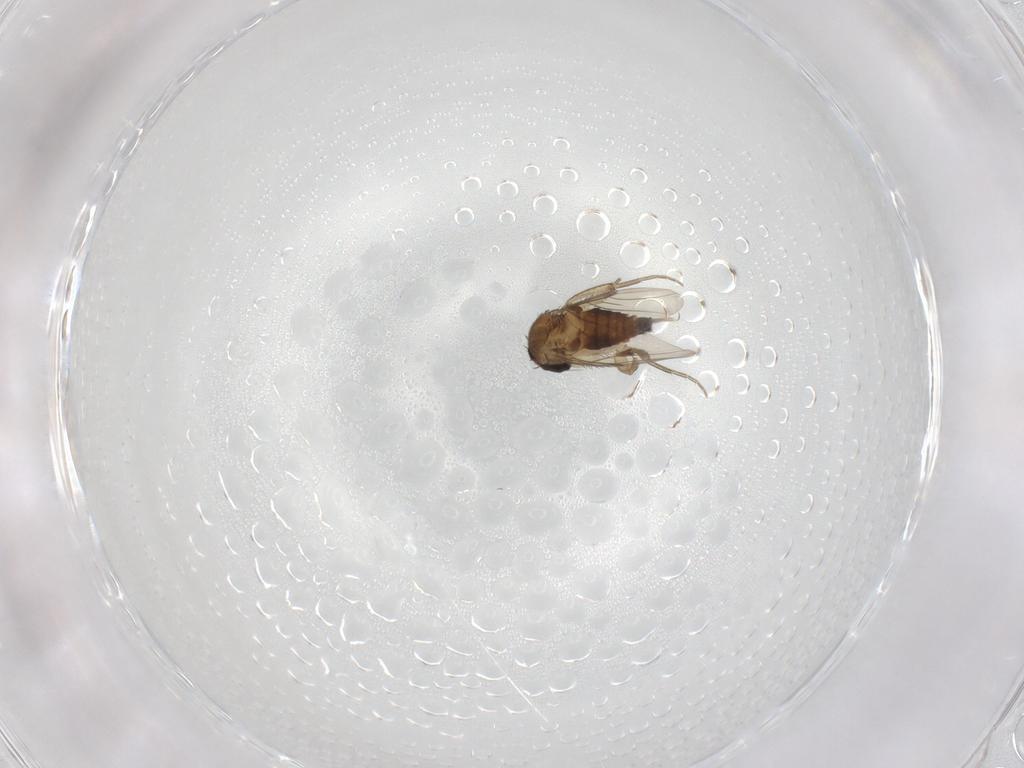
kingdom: Animalia
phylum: Arthropoda
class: Insecta
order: Diptera
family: Phoridae
